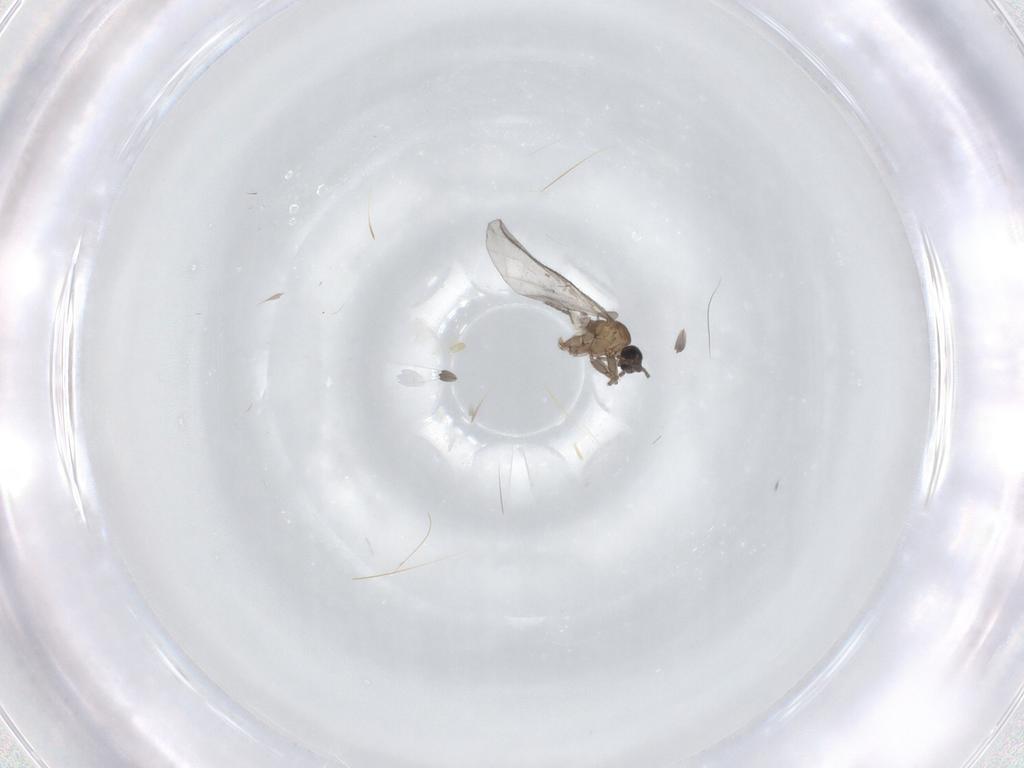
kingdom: Animalia
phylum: Arthropoda
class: Insecta
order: Diptera
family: Sciaridae
